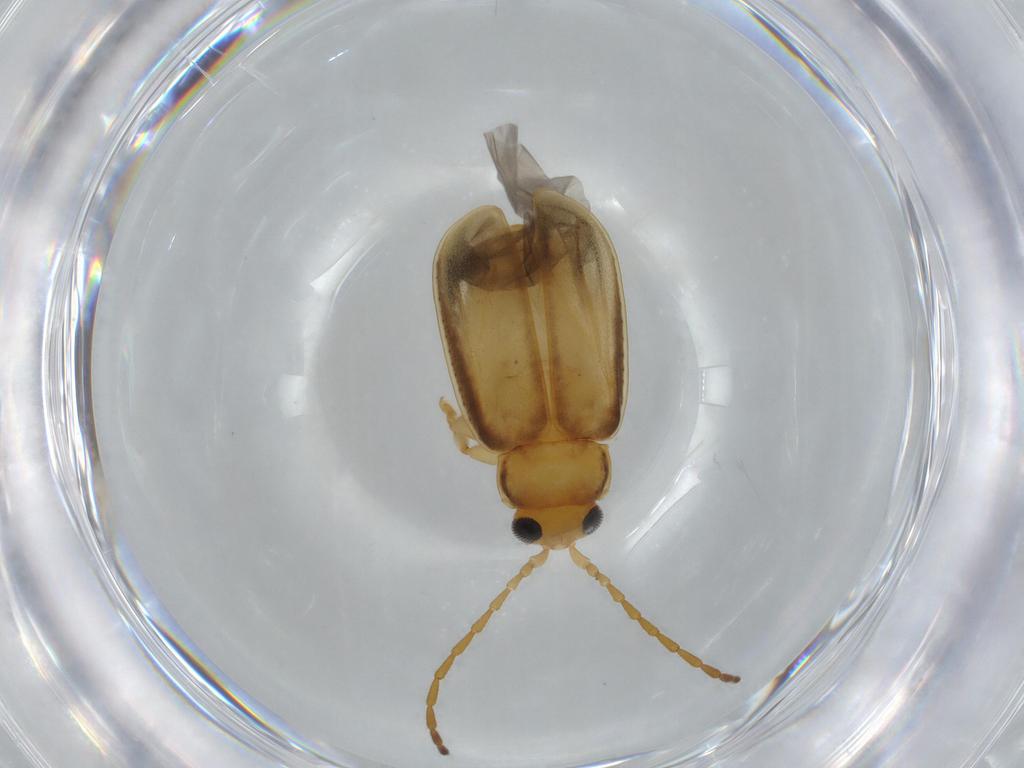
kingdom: Animalia
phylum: Arthropoda
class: Insecta
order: Coleoptera
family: Staphylinidae
